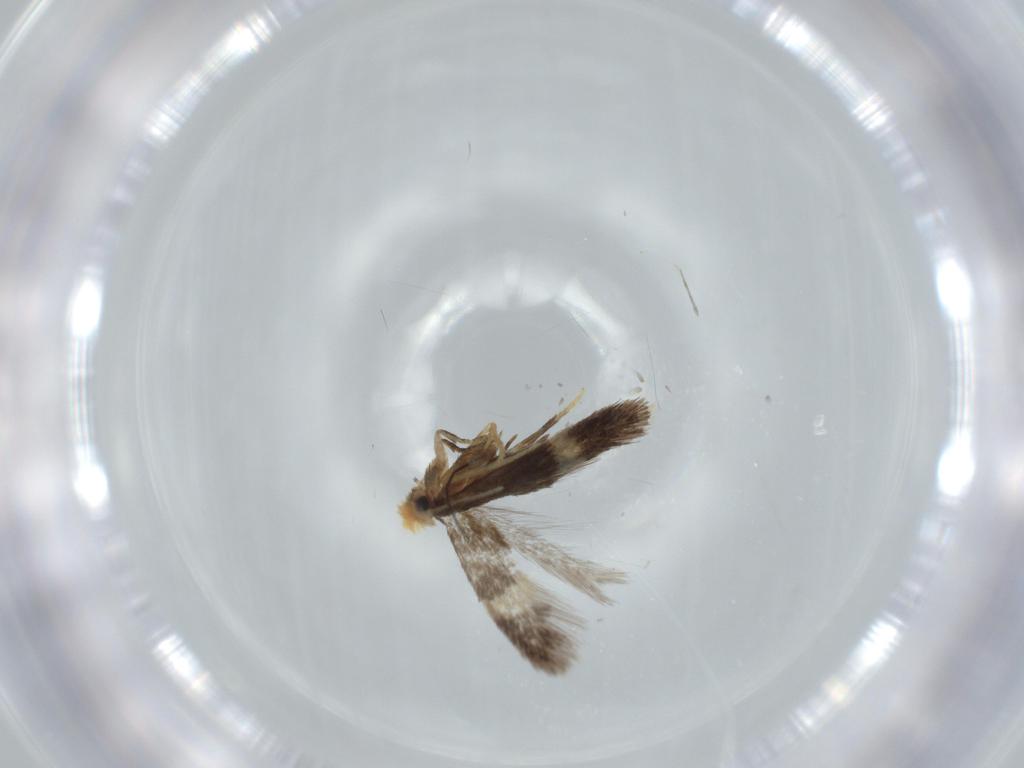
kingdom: Animalia
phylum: Arthropoda
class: Insecta
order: Lepidoptera
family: Nepticulidae
